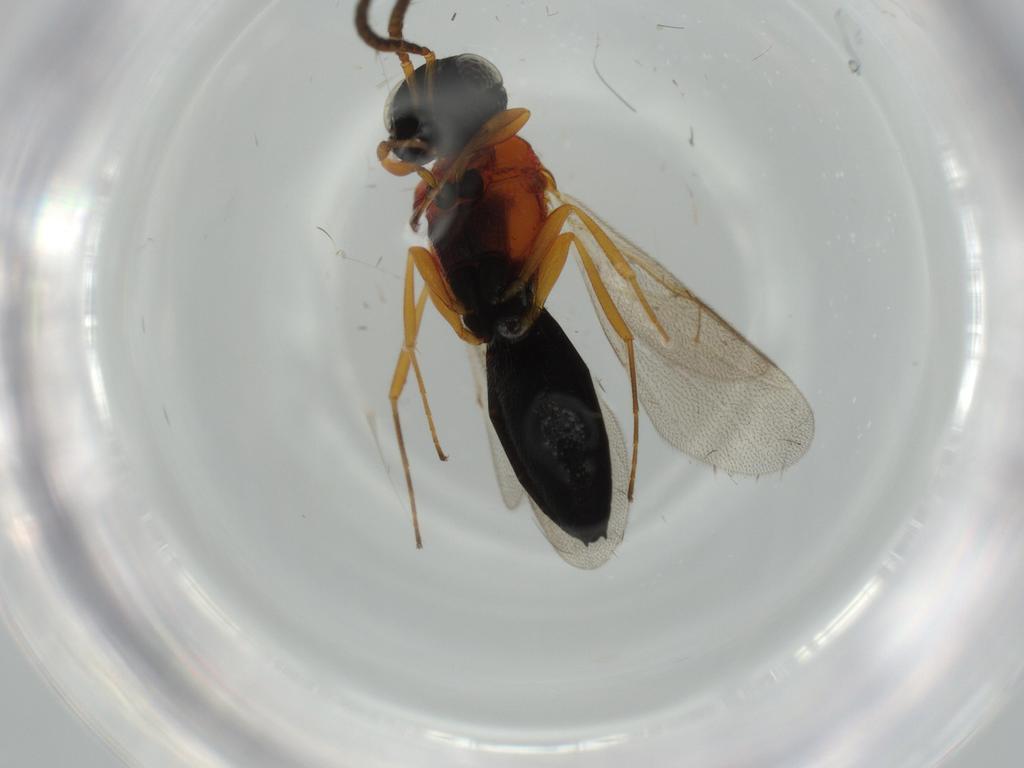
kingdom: Animalia
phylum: Arthropoda
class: Insecta
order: Hymenoptera
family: Scelionidae
